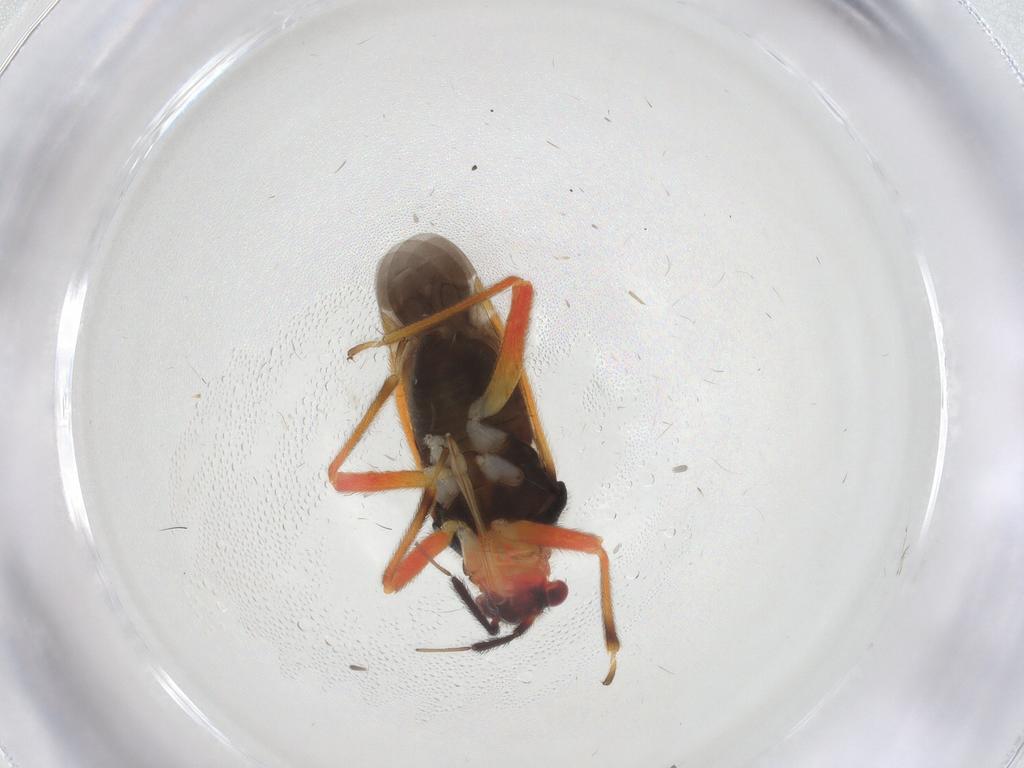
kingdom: Animalia
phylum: Arthropoda
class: Insecta
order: Hemiptera
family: Miridae
